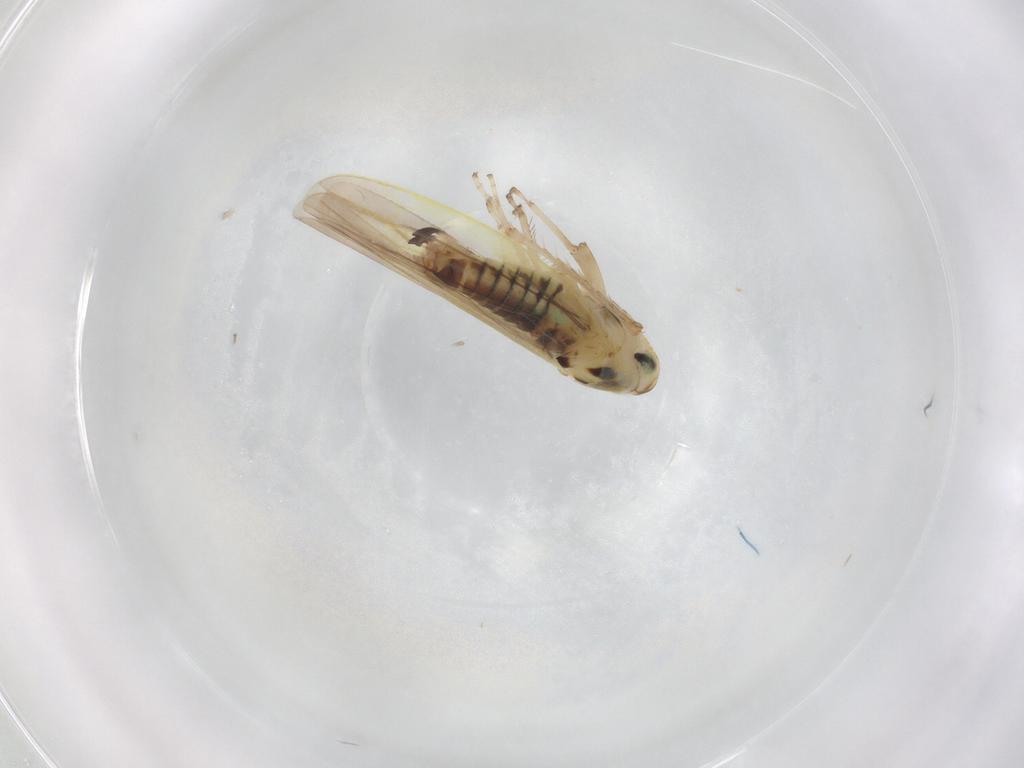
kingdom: Animalia
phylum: Arthropoda
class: Insecta
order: Hemiptera
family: Cicadellidae
